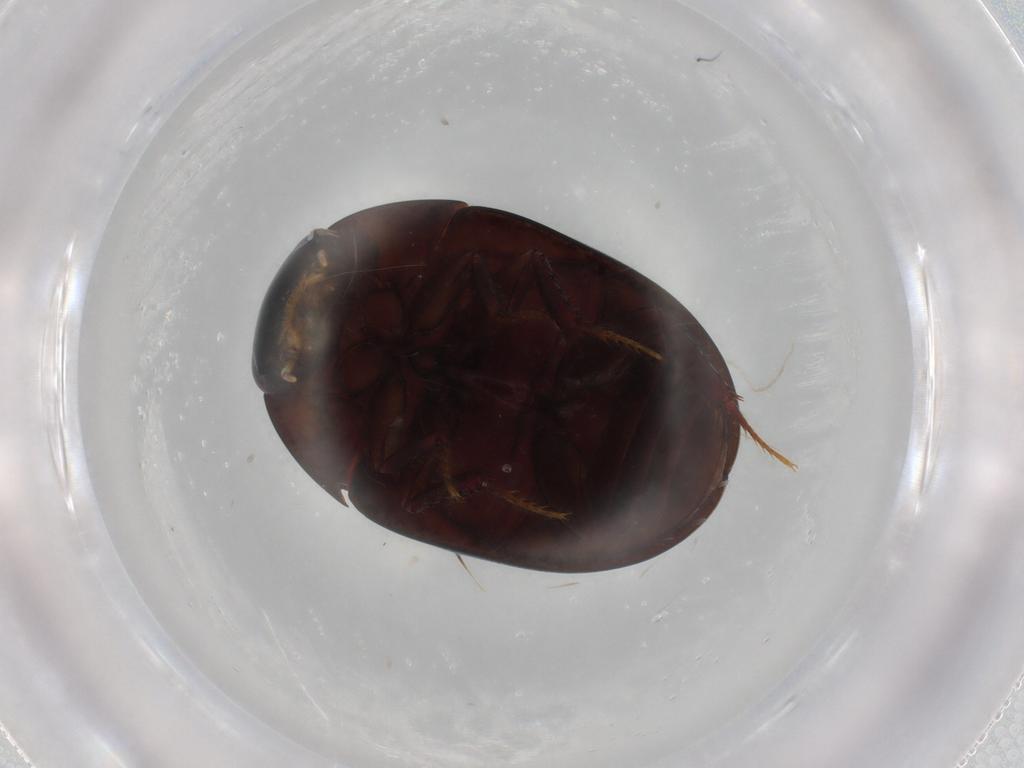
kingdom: Animalia
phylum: Arthropoda
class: Insecta
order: Coleoptera
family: Hydrophilidae
